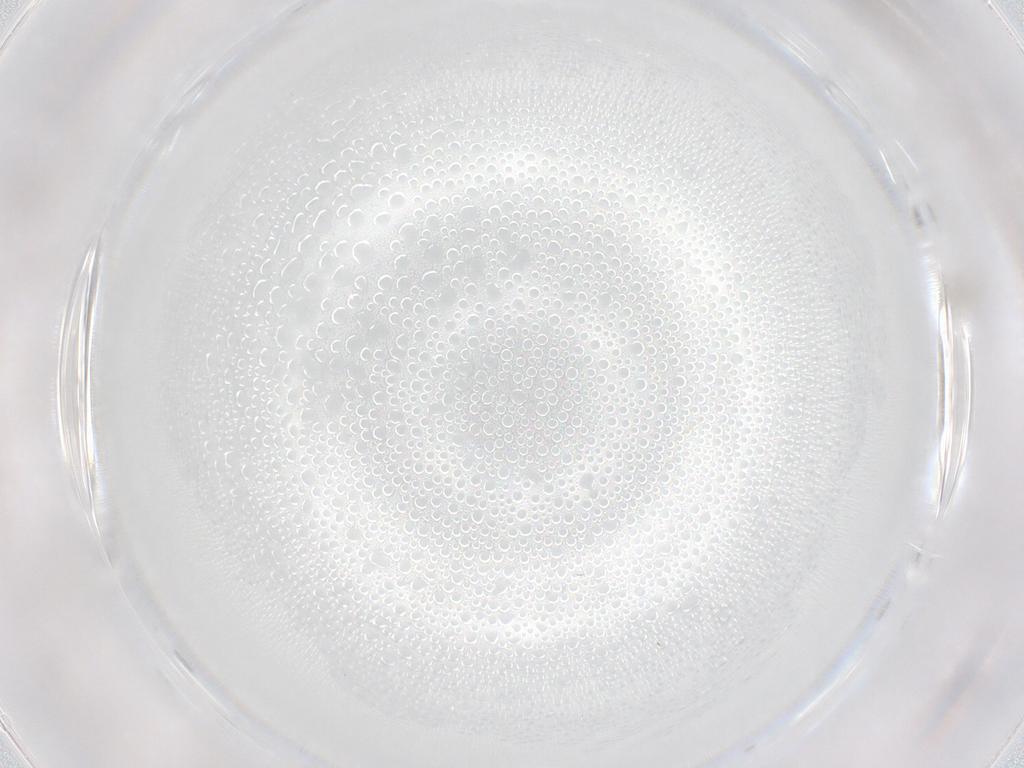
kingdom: Animalia
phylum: Arthropoda
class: Insecta
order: Hymenoptera
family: Mymaridae
